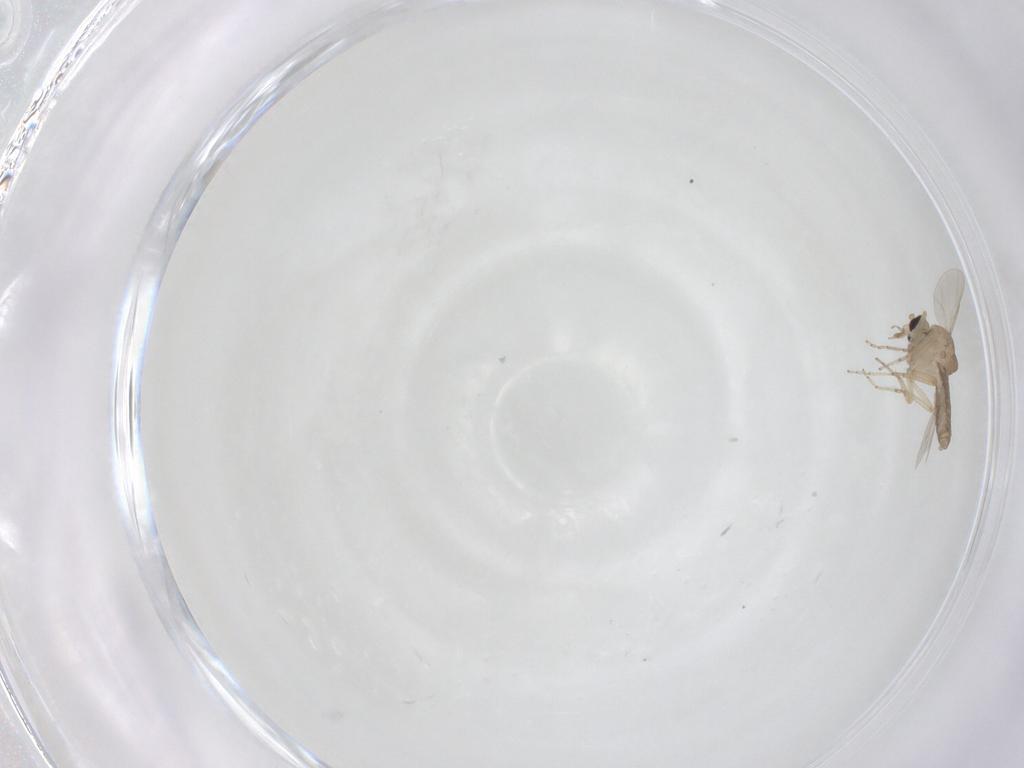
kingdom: Animalia
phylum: Arthropoda
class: Insecta
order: Diptera
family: Ceratopogonidae
